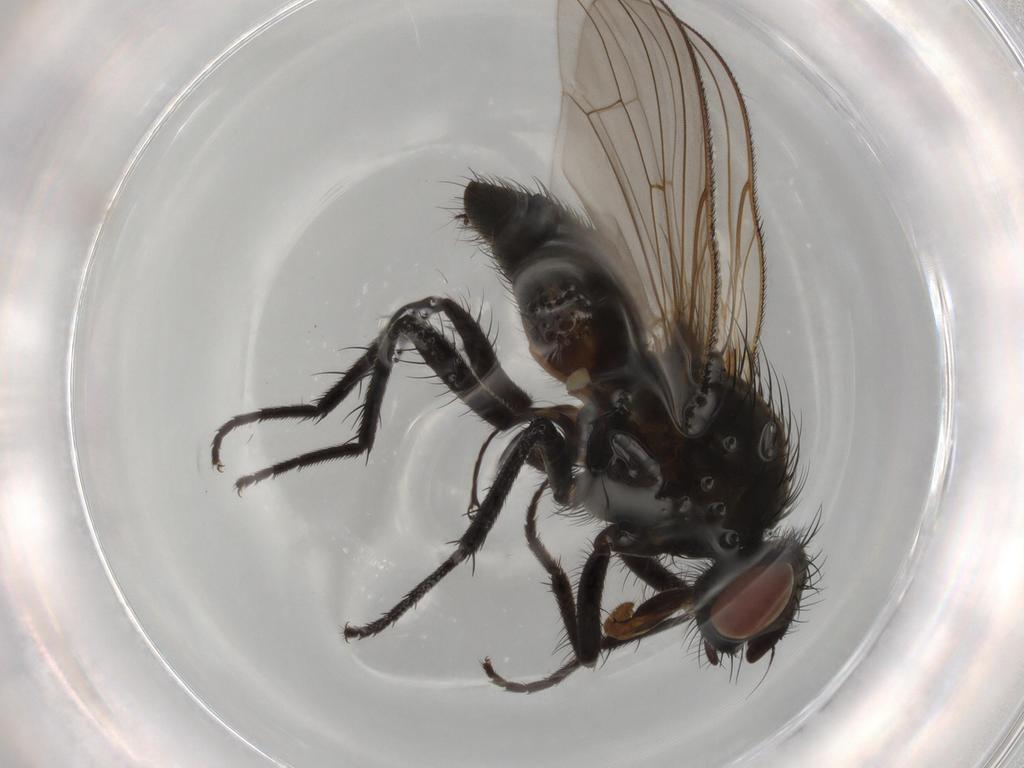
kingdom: Animalia
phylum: Arthropoda
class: Insecta
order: Diptera
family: Anthomyiidae
